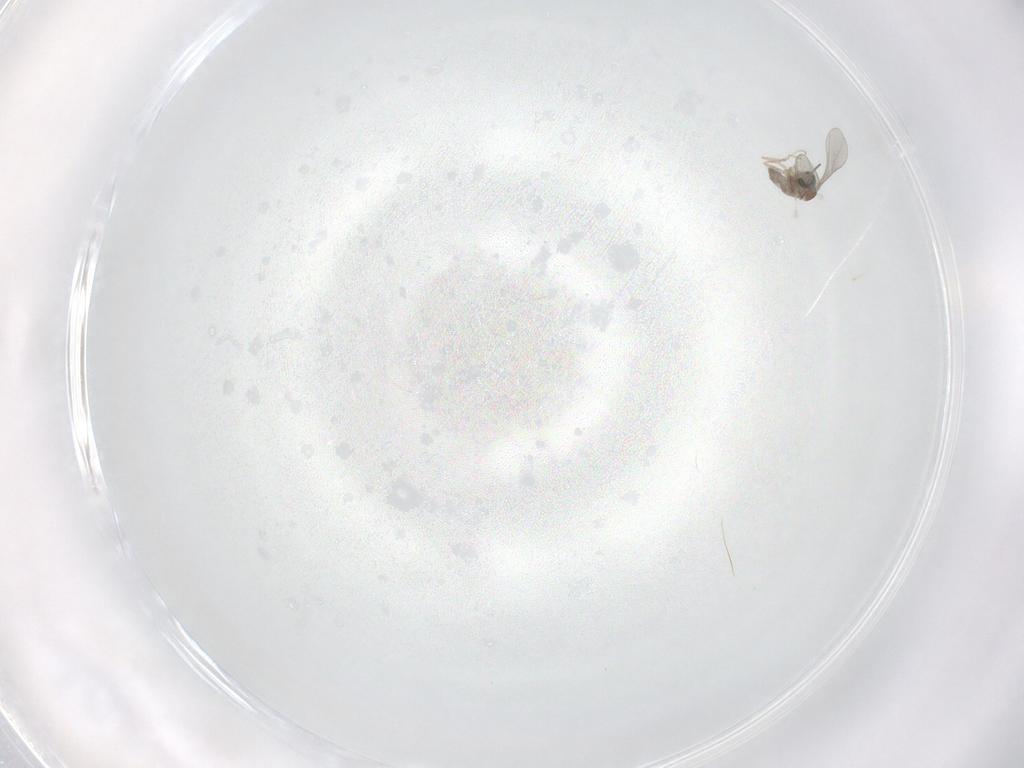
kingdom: Animalia
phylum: Arthropoda
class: Insecta
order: Diptera
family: Cecidomyiidae
